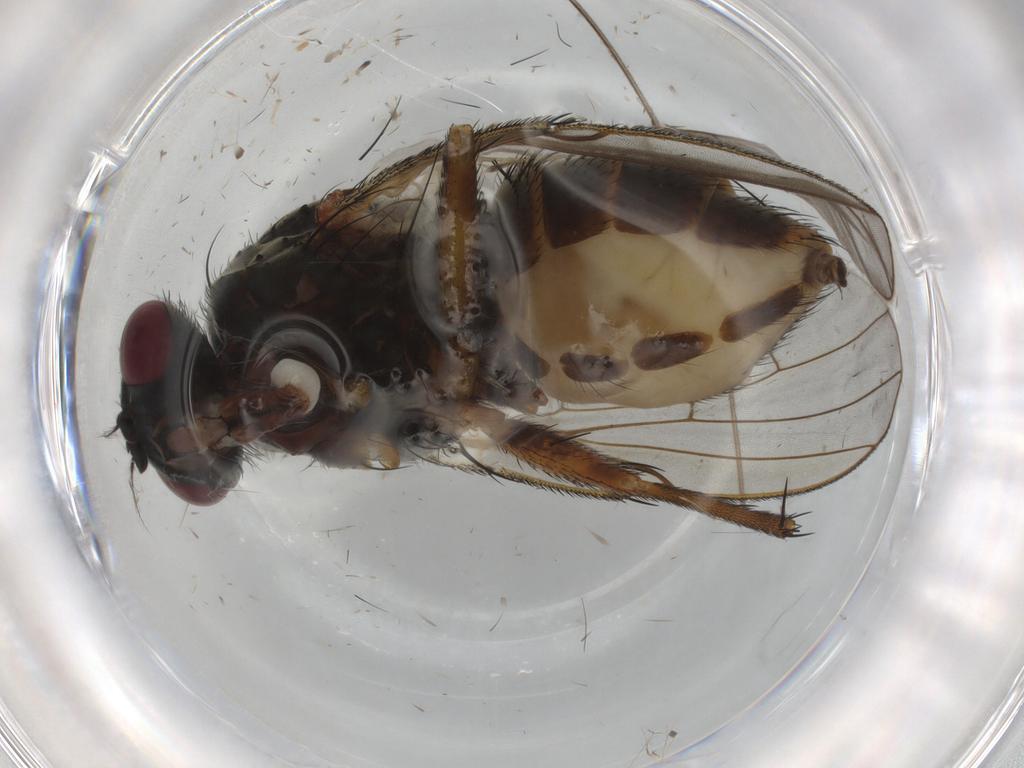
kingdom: Animalia
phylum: Arthropoda
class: Insecta
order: Diptera
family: Muscidae
